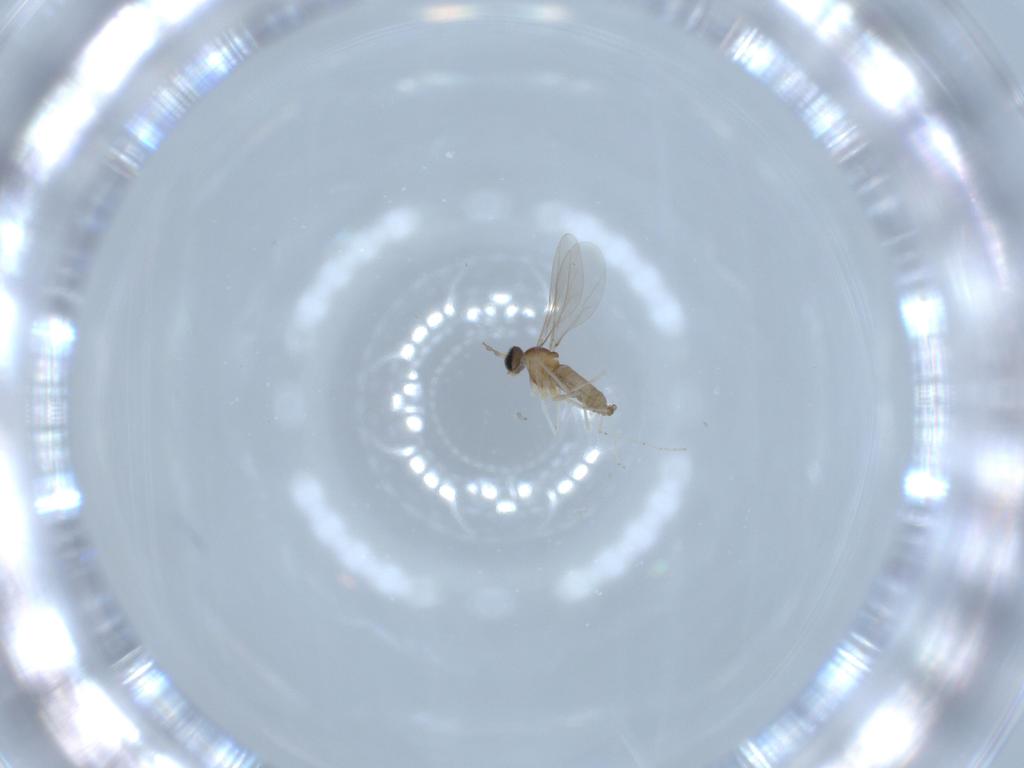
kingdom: Animalia
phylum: Arthropoda
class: Insecta
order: Diptera
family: Cecidomyiidae
